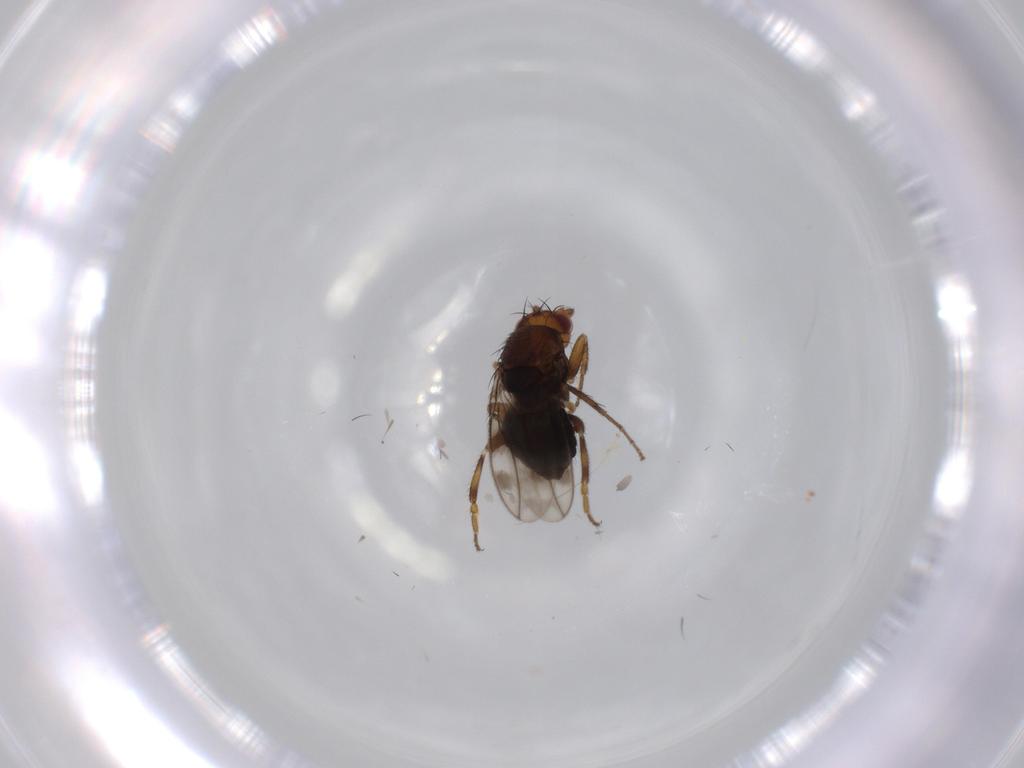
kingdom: Animalia
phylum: Arthropoda
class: Insecta
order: Diptera
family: Sphaeroceridae
